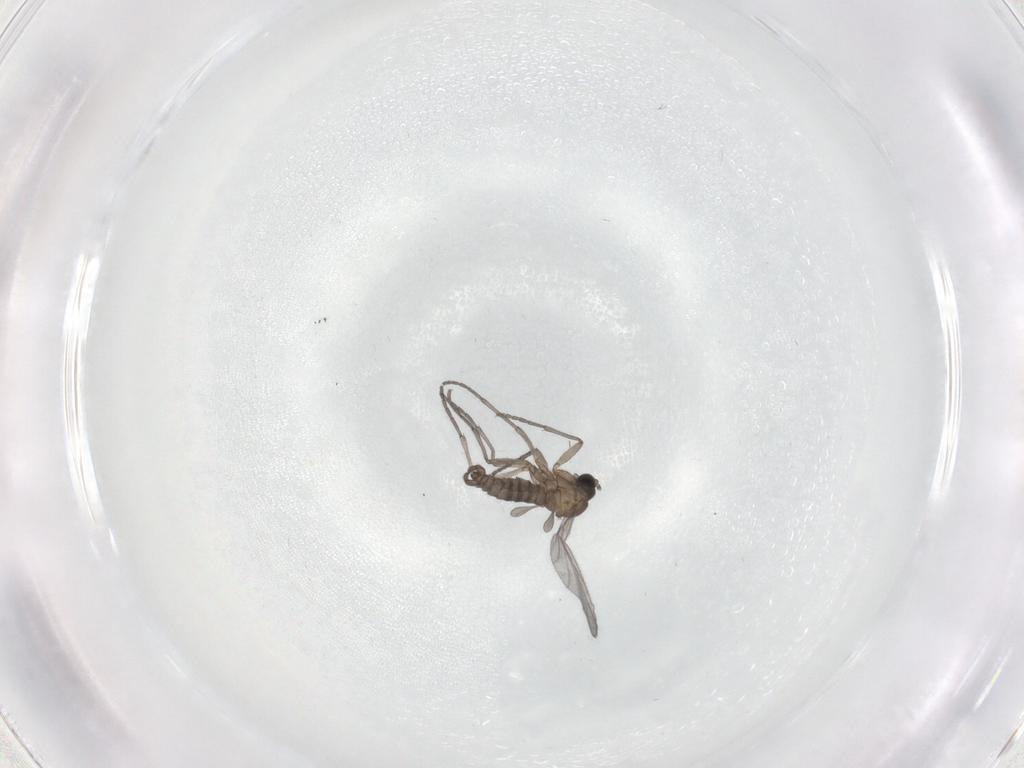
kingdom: Animalia
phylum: Arthropoda
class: Insecta
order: Diptera
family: Sciaridae
